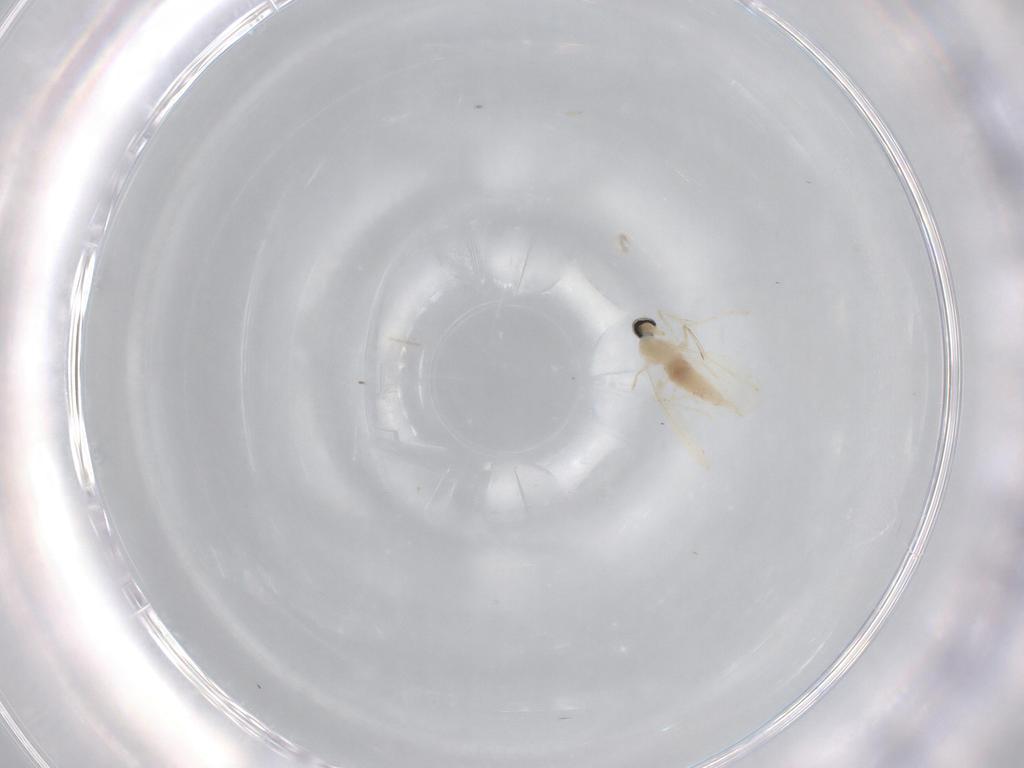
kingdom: Animalia
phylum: Arthropoda
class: Insecta
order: Diptera
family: Cecidomyiidae
